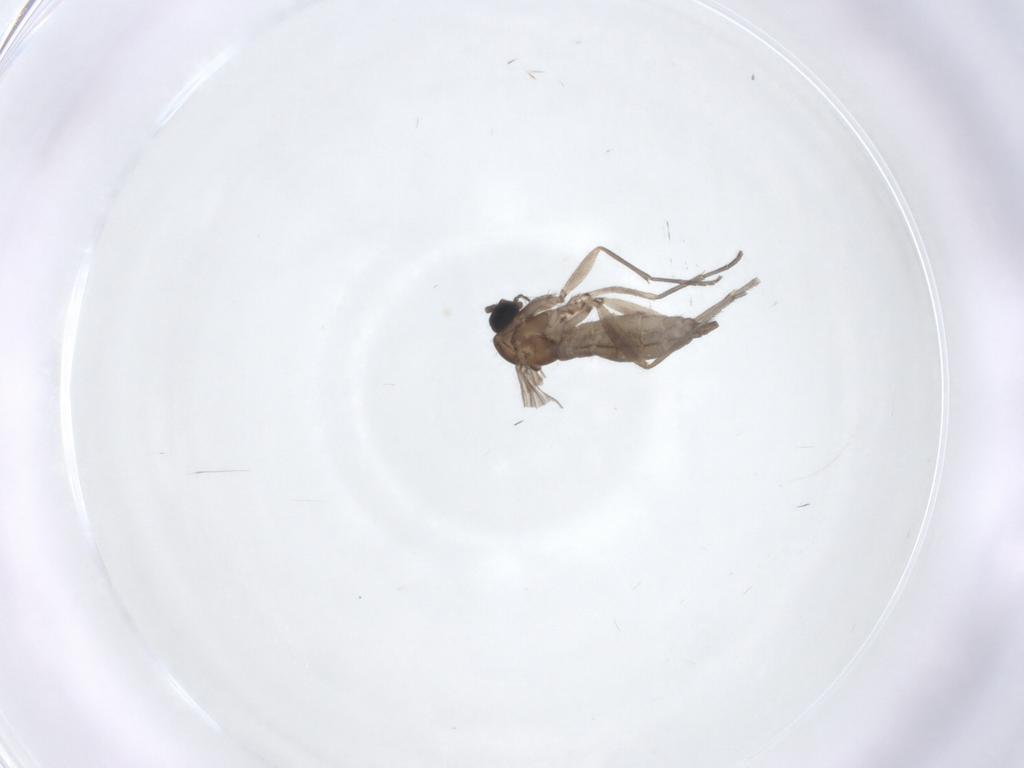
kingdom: Animalia
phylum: Arthropoda
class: Insecta
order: Diptera
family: Sciaridae
